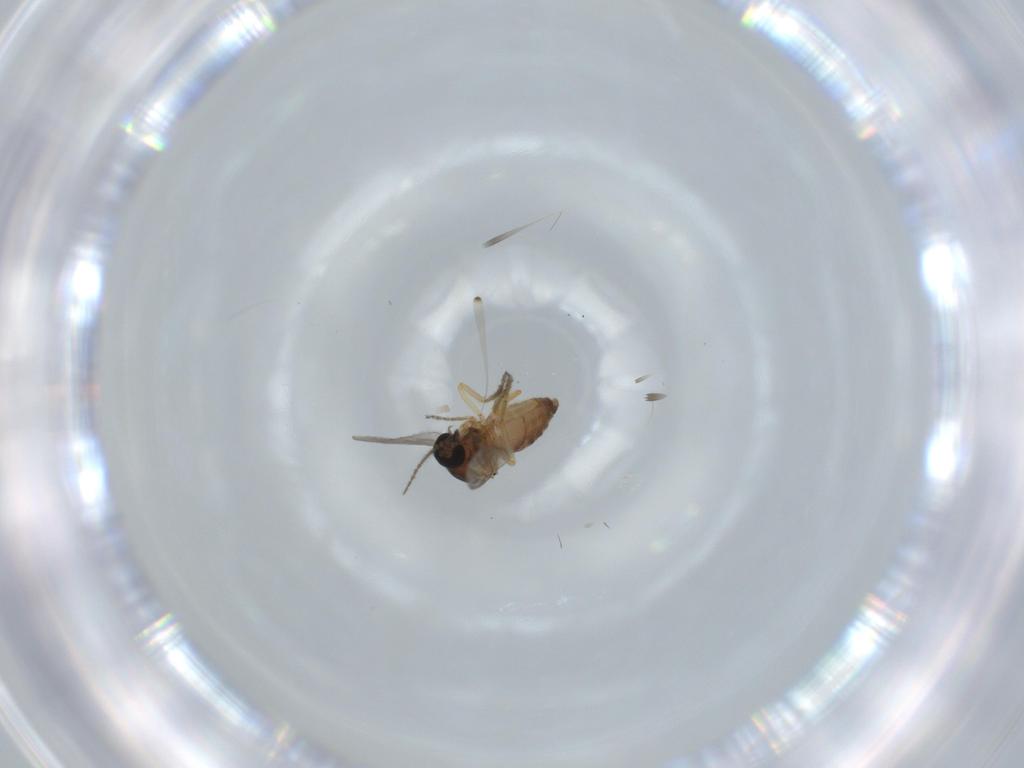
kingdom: Animalia
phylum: Arthropoda
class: Insecta
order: Diptera
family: Ceratopogonidae
